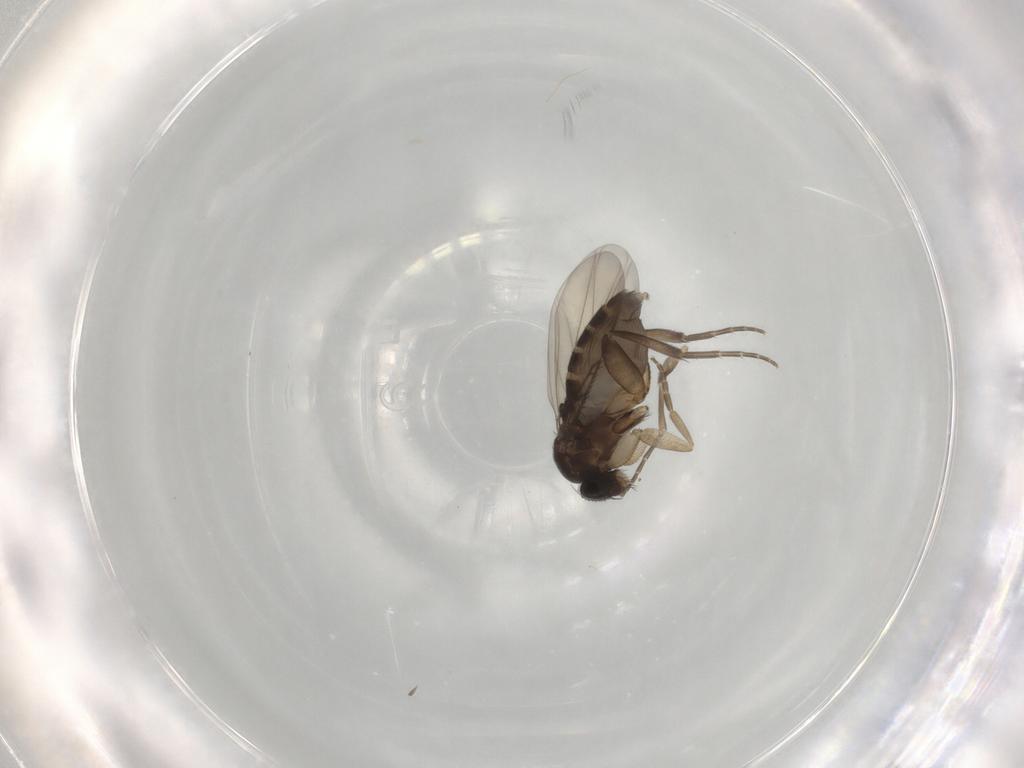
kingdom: Animalia
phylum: Arthropoda
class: Insecta
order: Diptera
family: Phoridae
